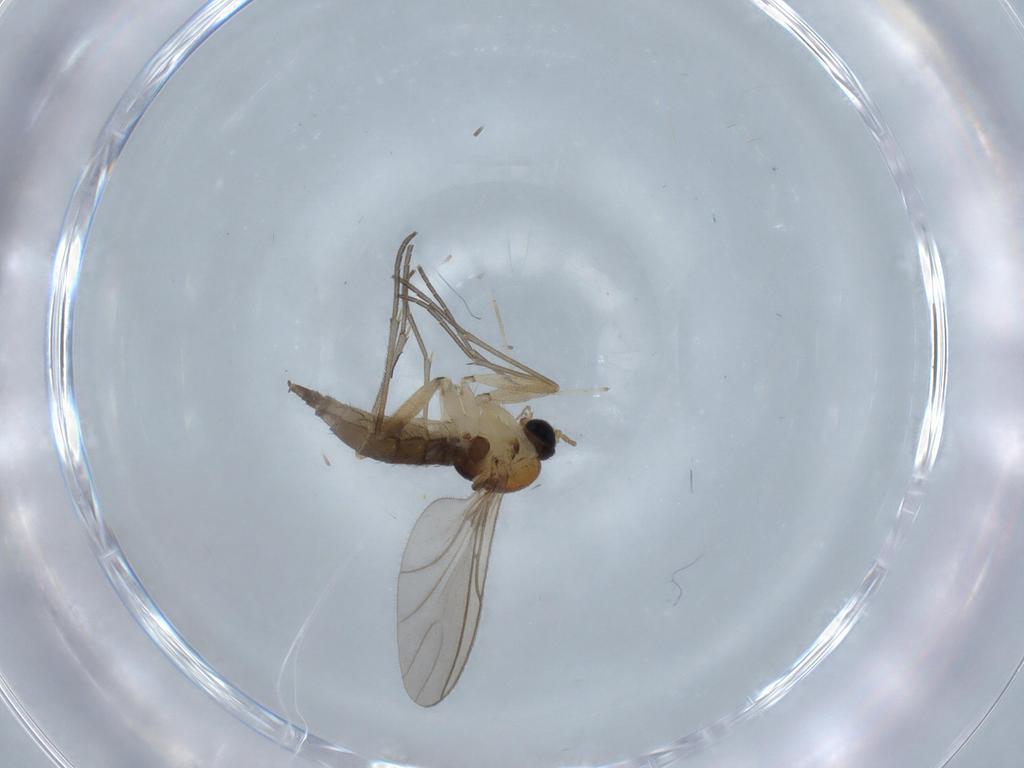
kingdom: Animalia
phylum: Arthropoda
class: Insecta
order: Diptera
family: Sciaridae
